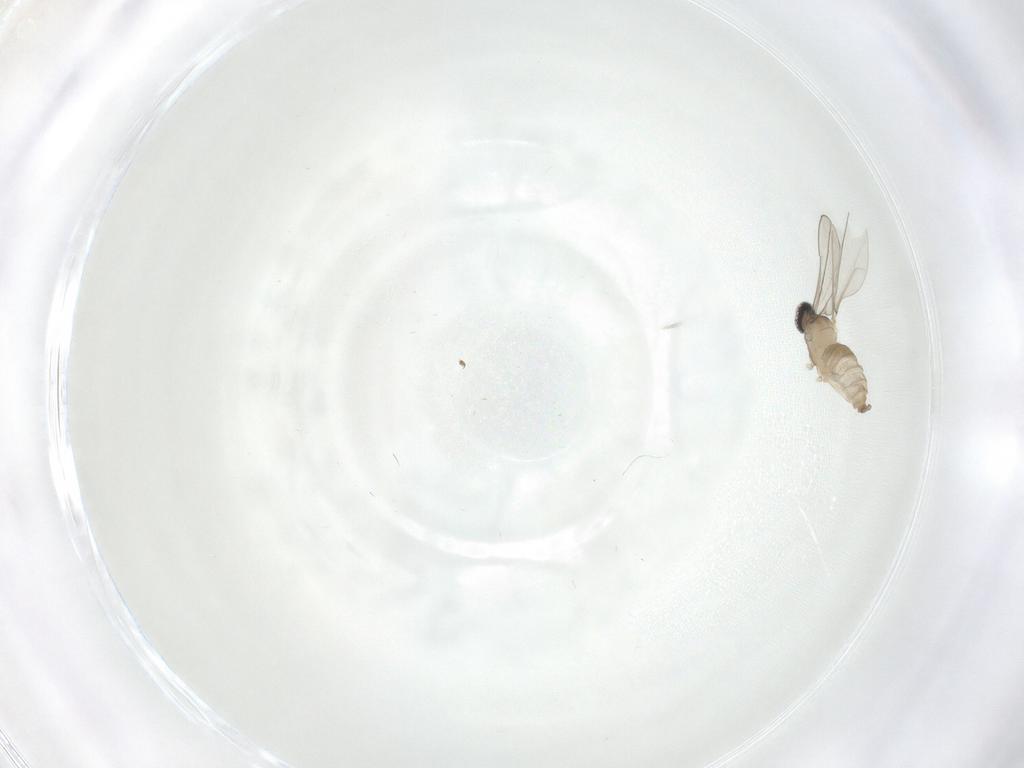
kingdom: Animalia
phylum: Arthropoda
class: Insecta
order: Diptera
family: Cecidomyiidae
